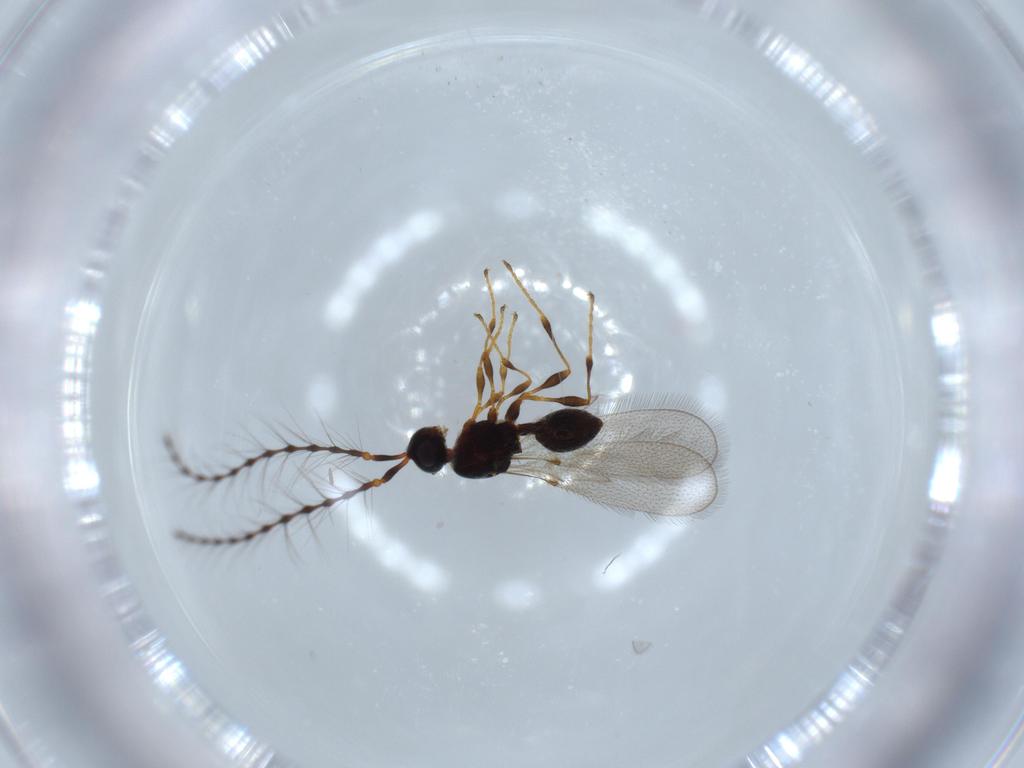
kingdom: Animalia
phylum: Arthropoda
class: Insecta
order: Hymenoptera
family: Diapriidae
